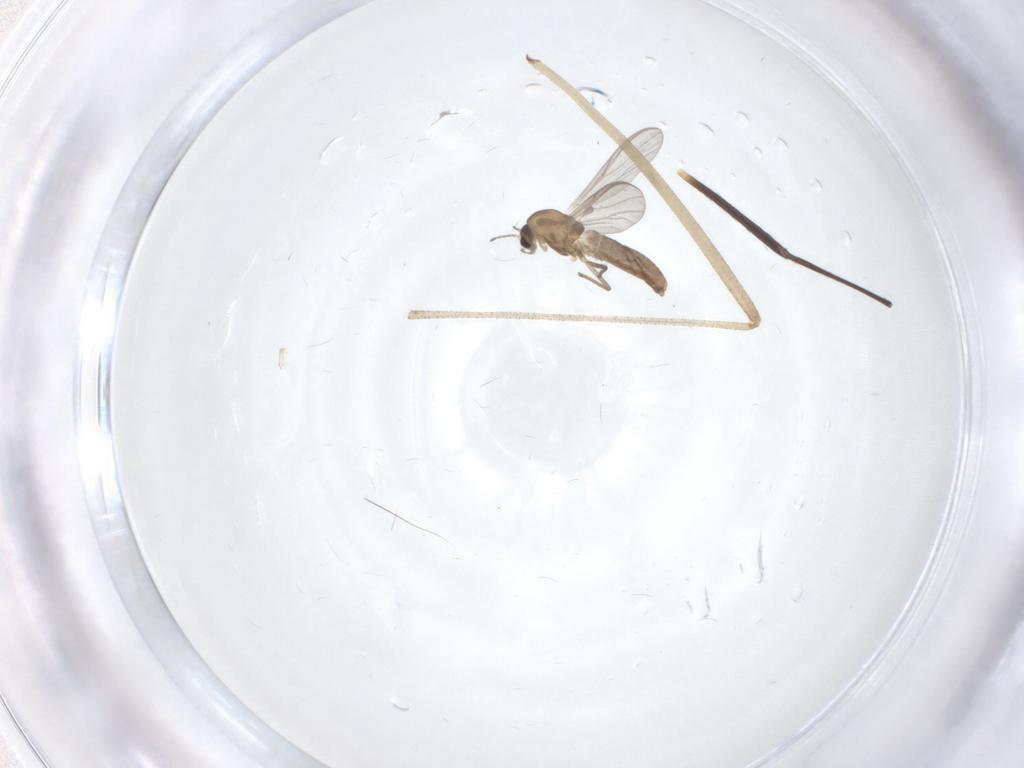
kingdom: Animalia
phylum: Arthropoda
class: Insecta
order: Diptera
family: Chironomidae
